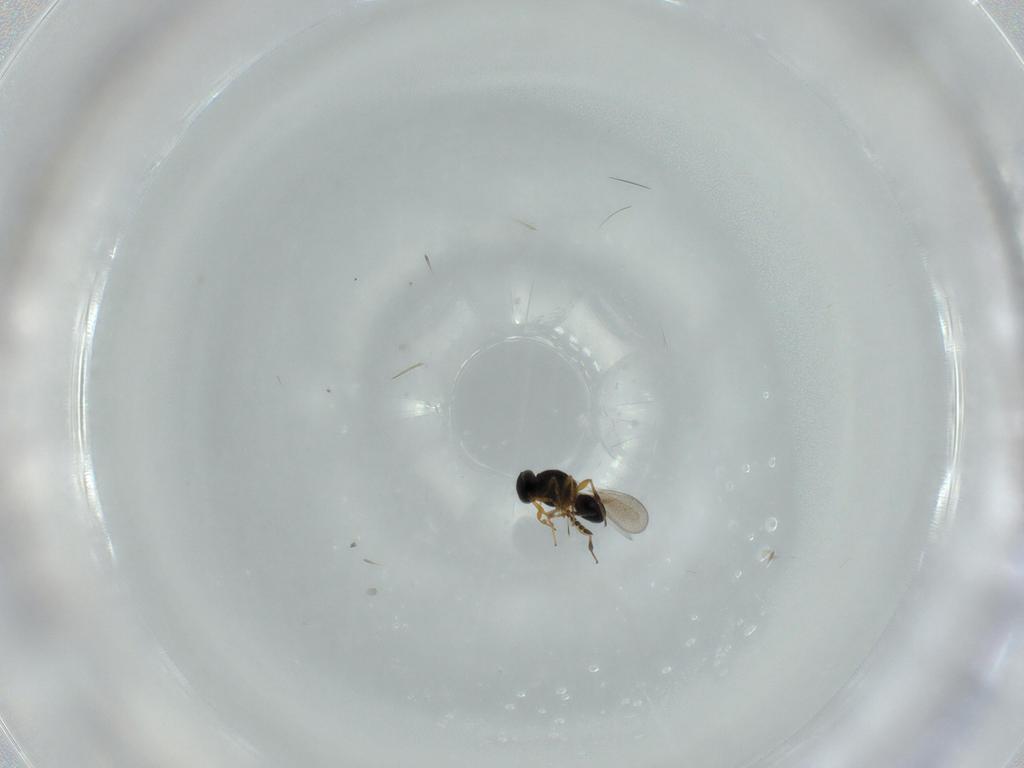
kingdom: Animalia
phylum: Arthropoda
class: Insecta
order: Hymenoptera
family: Platygastridae
